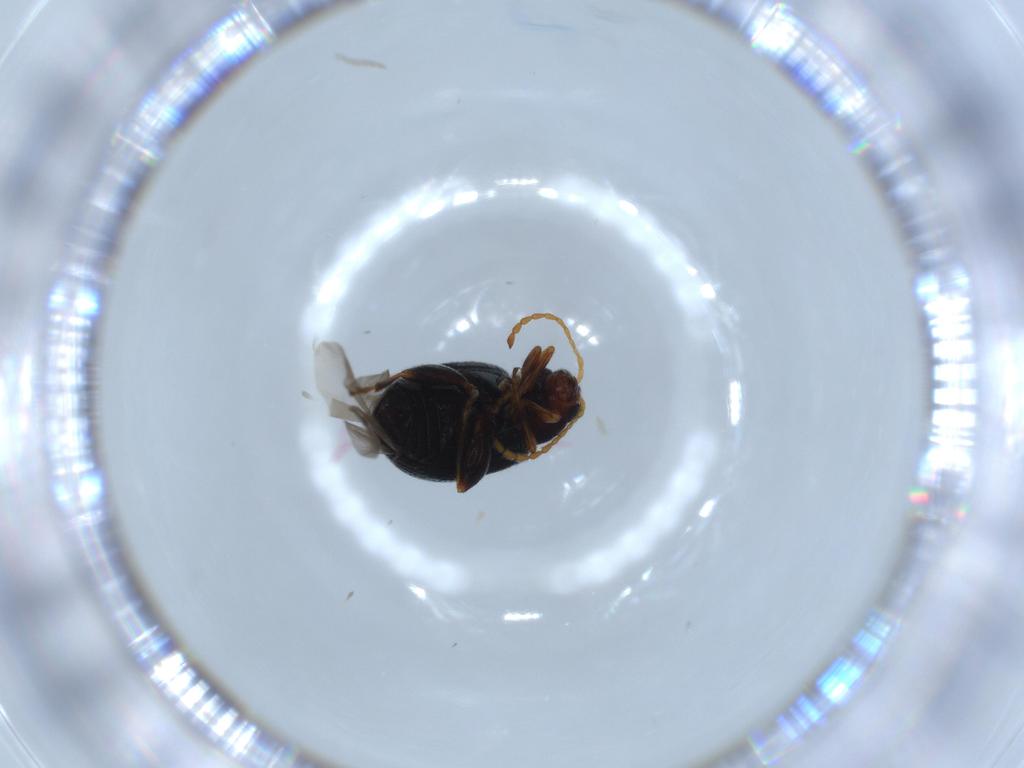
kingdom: Animalia
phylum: Arthropoda
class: Insecta
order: Coleoptera
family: Chrysomelidae
